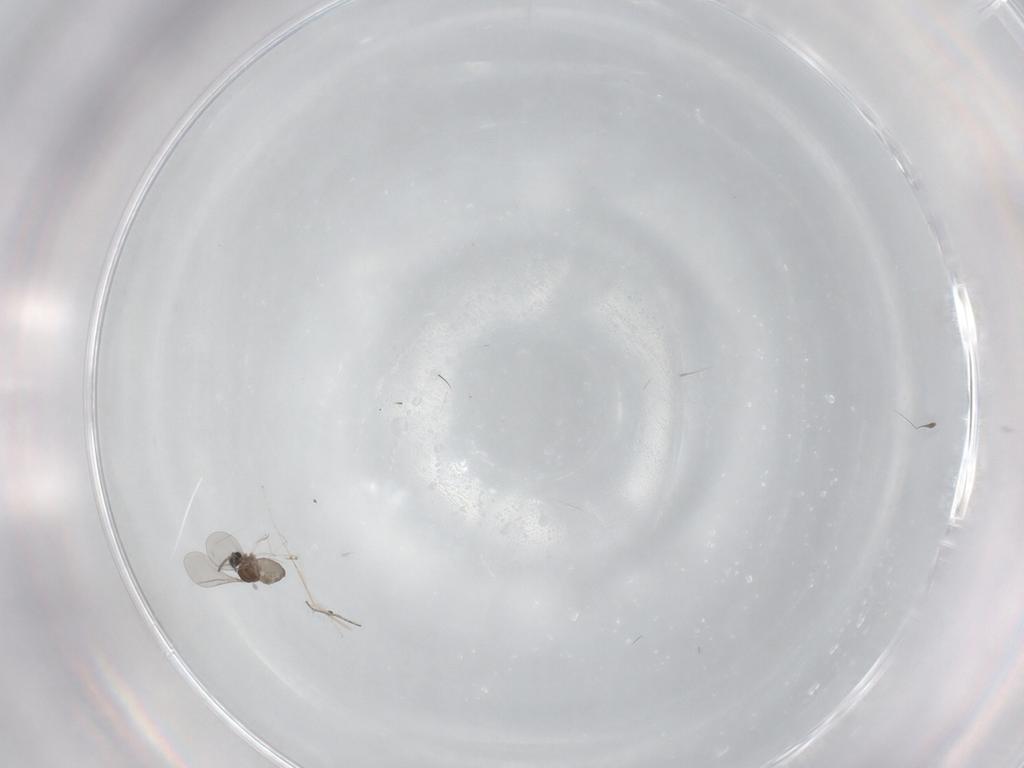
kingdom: Animalia
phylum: Arthropoda
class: Insecta
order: Diptera
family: Cecidomyiidae
